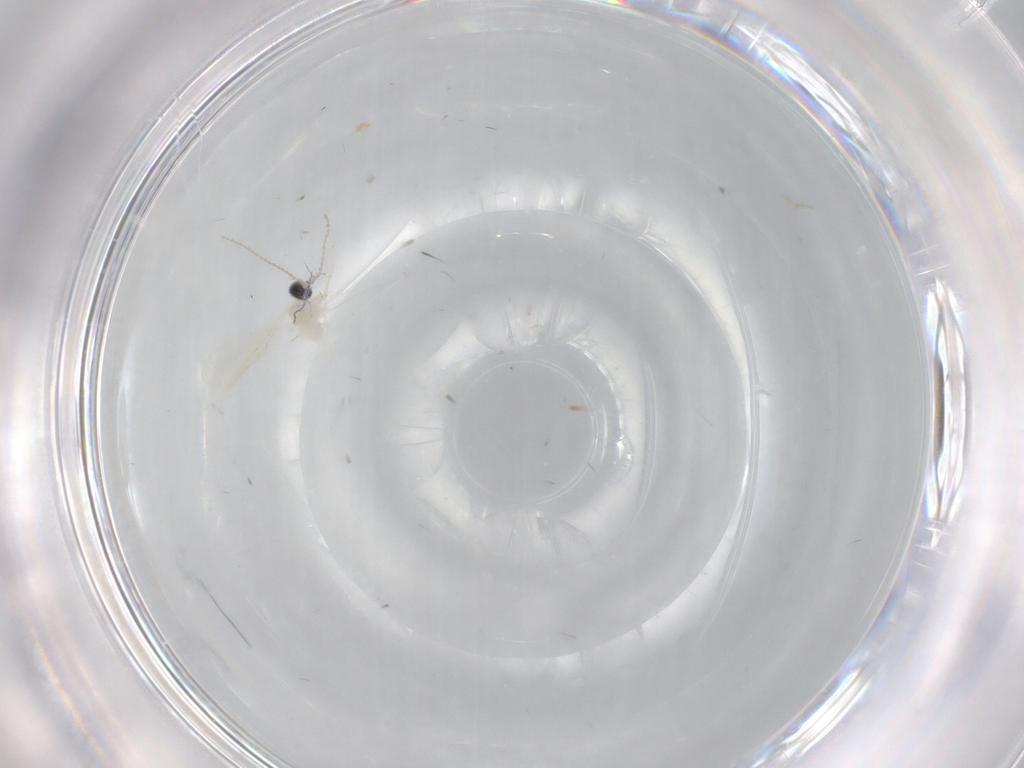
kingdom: Animalia
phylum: Arthropoda
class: Insecta
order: Diptera
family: Cecidomyiidae
